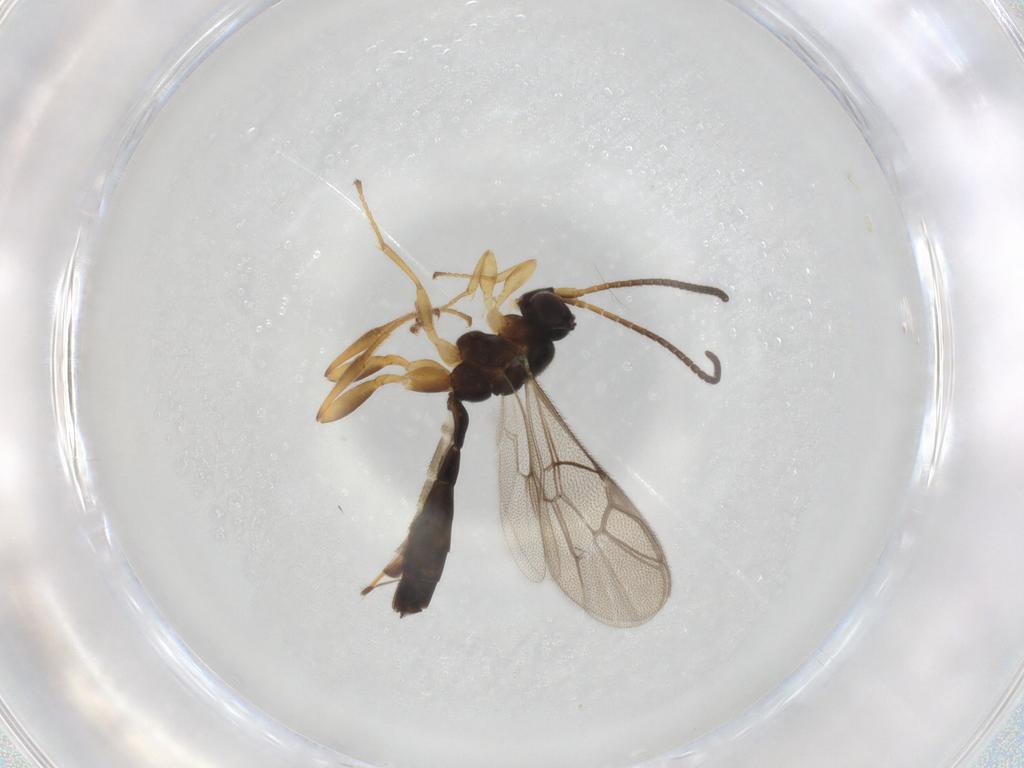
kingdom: Animalia
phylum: Arthropoda
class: Insecta
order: Hymenoptera
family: Ichneumonidae
